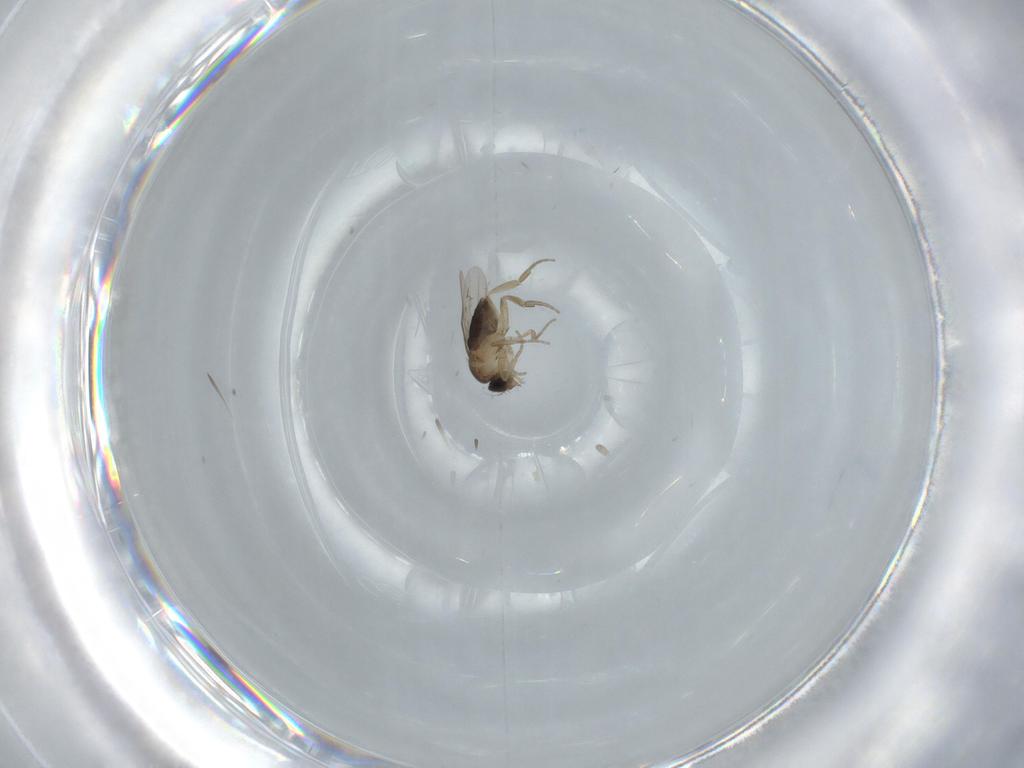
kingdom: Animalia
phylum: Arthropoda
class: Insecta
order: Diptera
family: Phoridae
